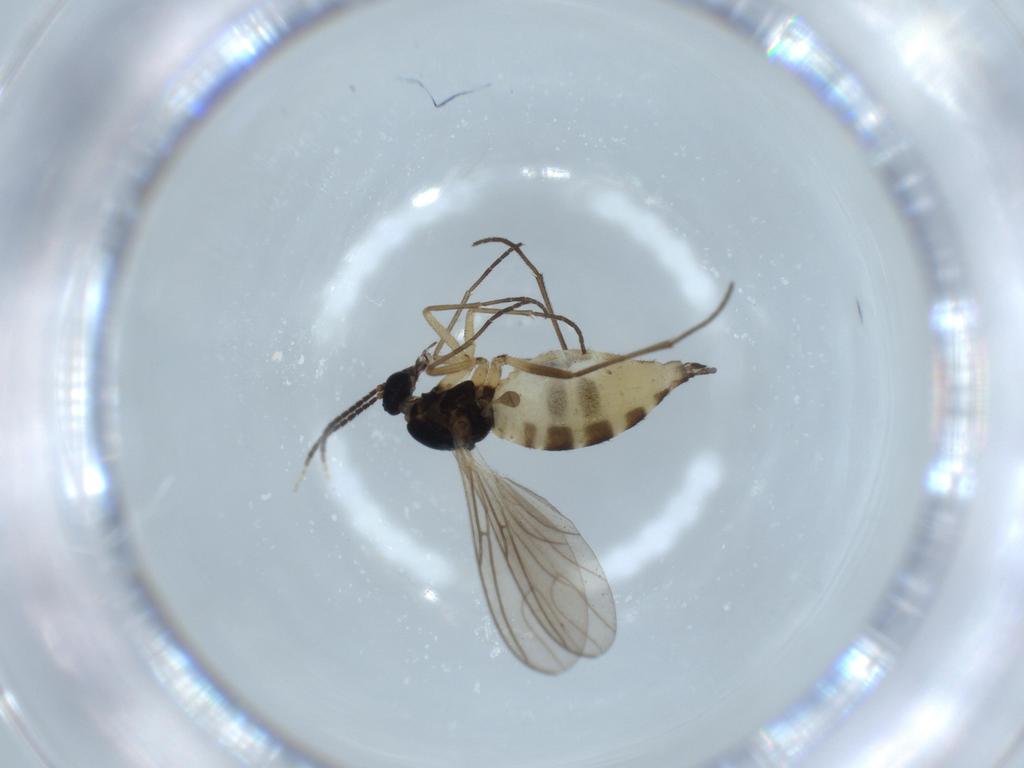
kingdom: Animalia
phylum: Arthropoda
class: Insecta
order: Diptera
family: Sciaridae
